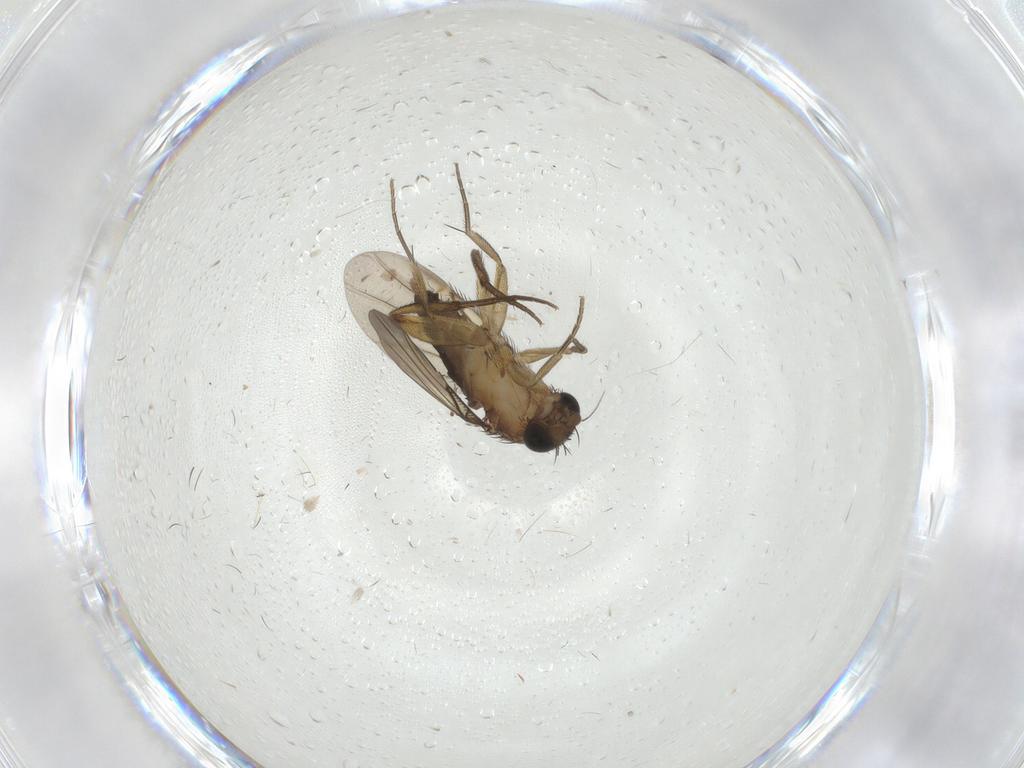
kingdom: Animalia
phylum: Arthropoda
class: Insecta
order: Diptera
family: Phoridae
